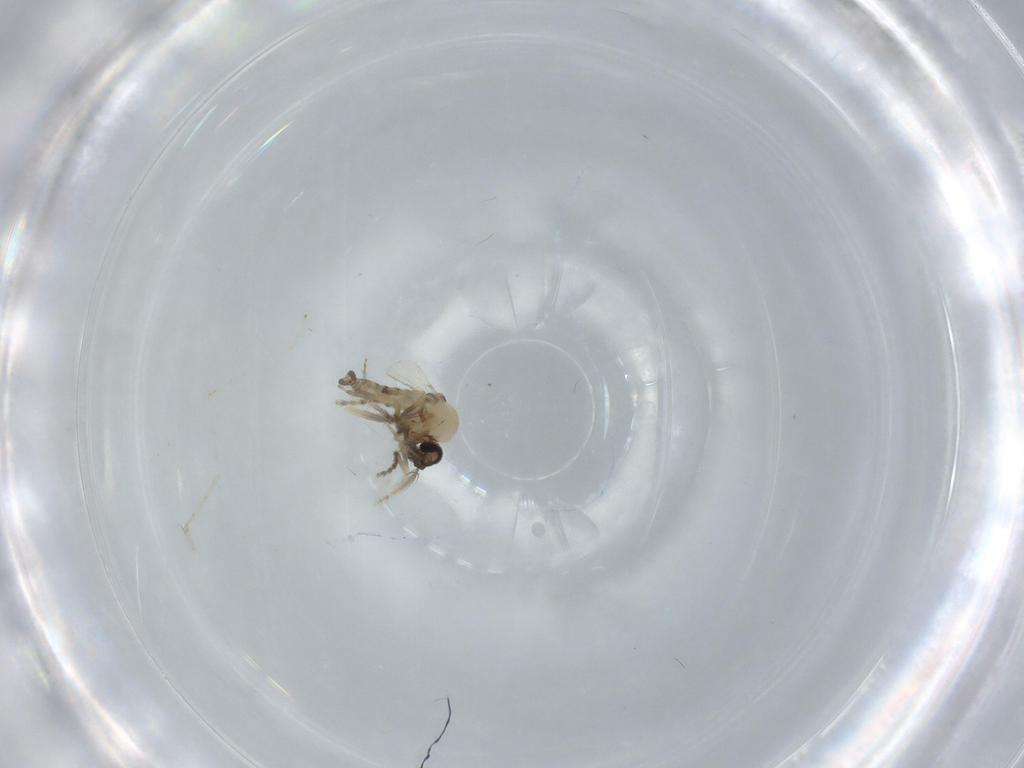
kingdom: Animalia
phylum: Arthropoda
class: Insecta
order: Diptera
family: Cecidomyiidae
